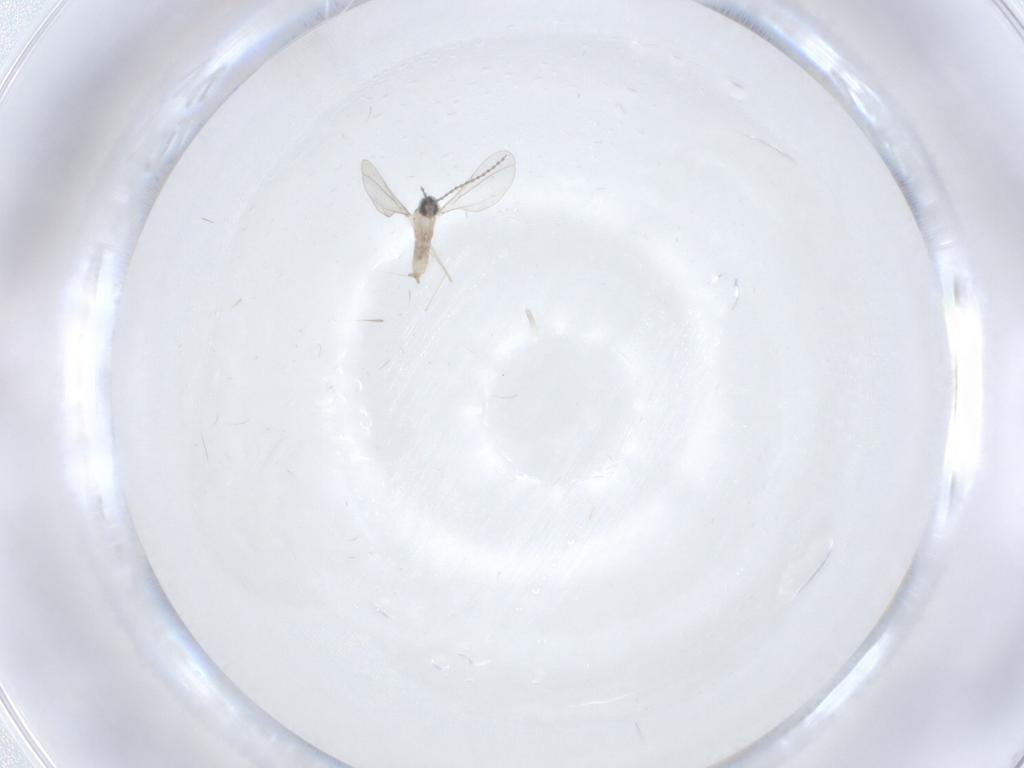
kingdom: Animalia
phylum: Arthropoda
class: Insecta
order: Diptera
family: Cecidomyiidae
